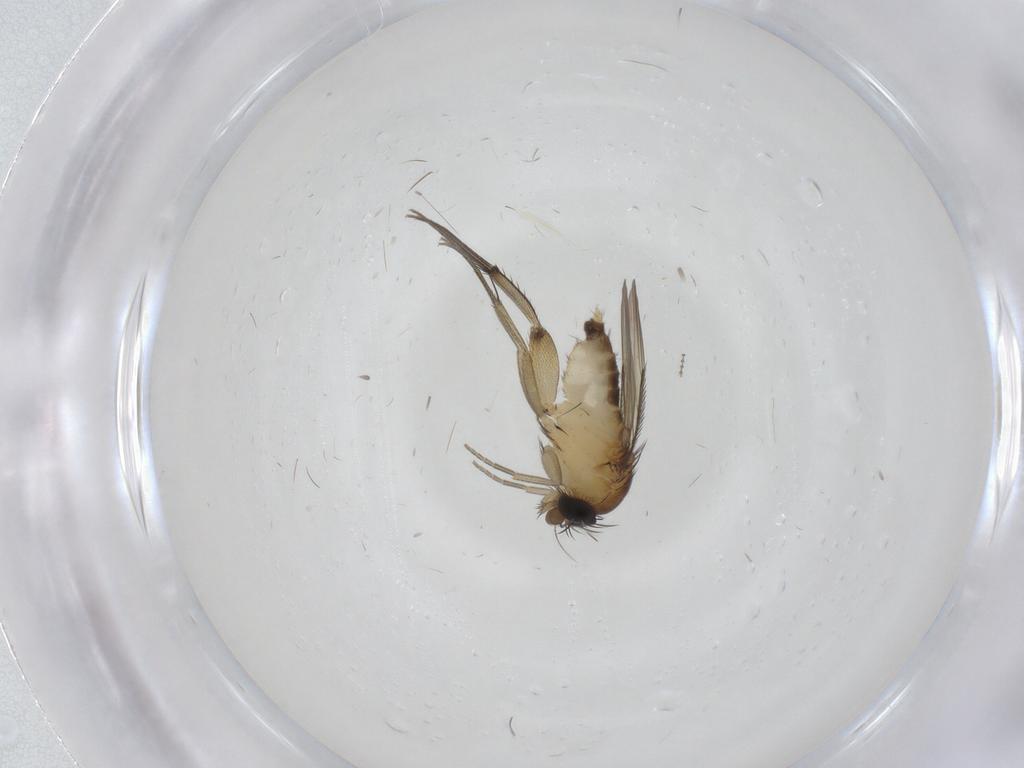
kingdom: Animalia
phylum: Arthropoda
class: Insecta
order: Diptera
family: Phoridae
